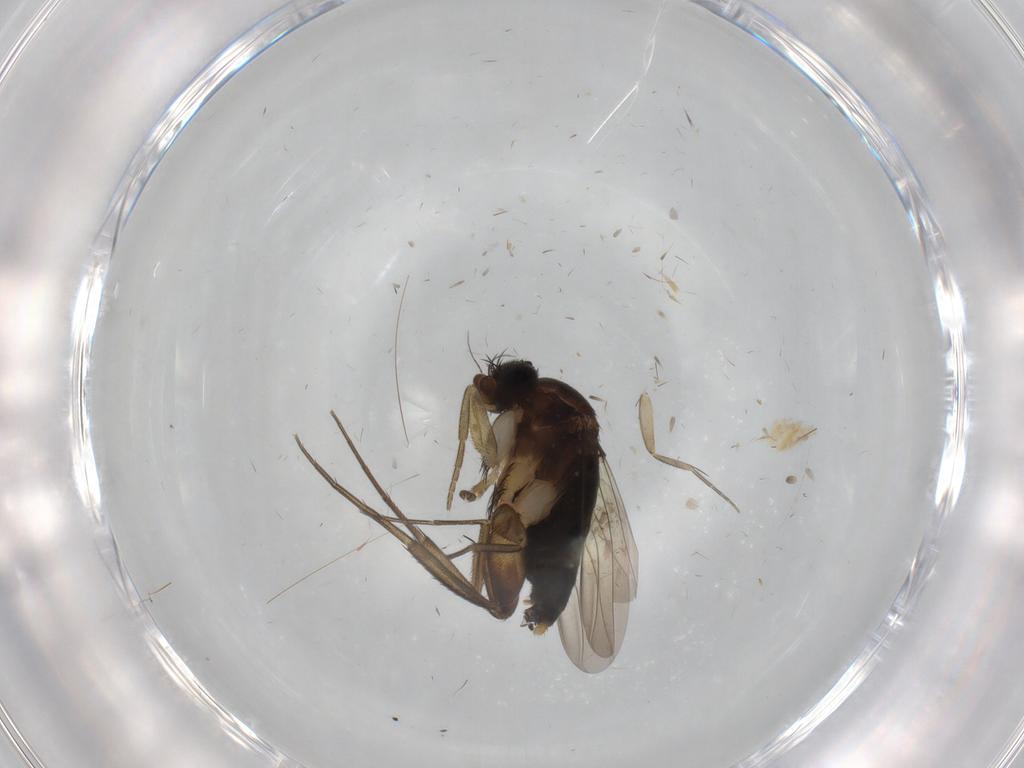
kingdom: Animalia
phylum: Arthropoda
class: Insecta
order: Diptera
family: Phoridae
